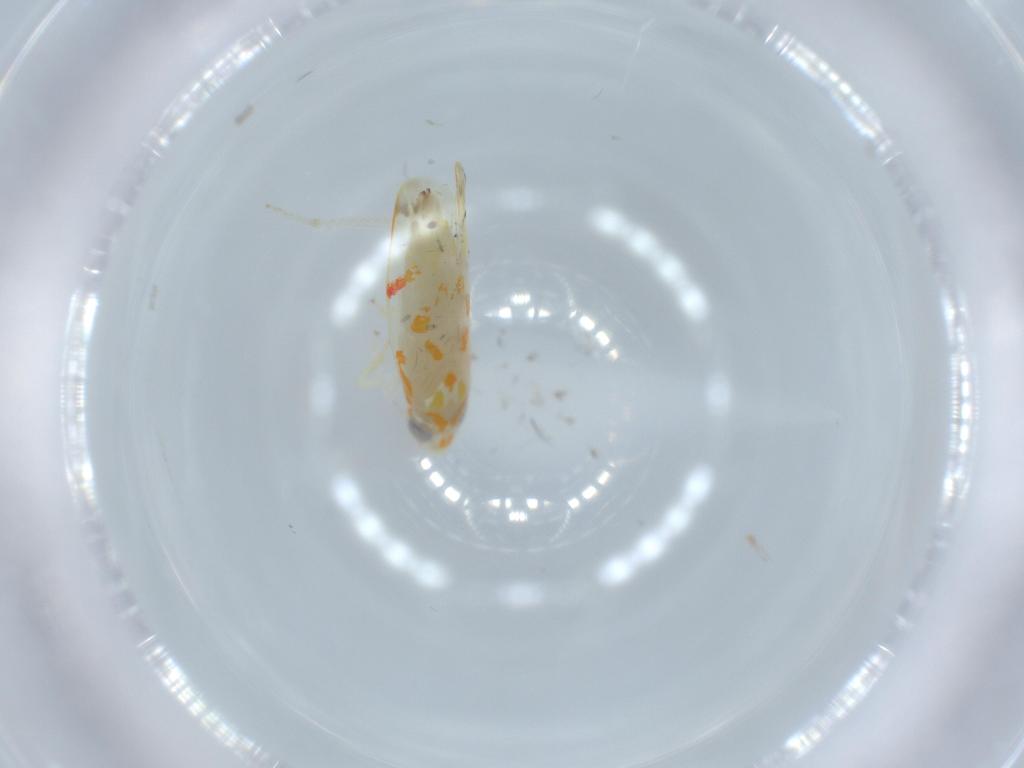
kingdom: Animalia
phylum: Arthropoda
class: Insecta
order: Hemiptera
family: Cicadellidae
